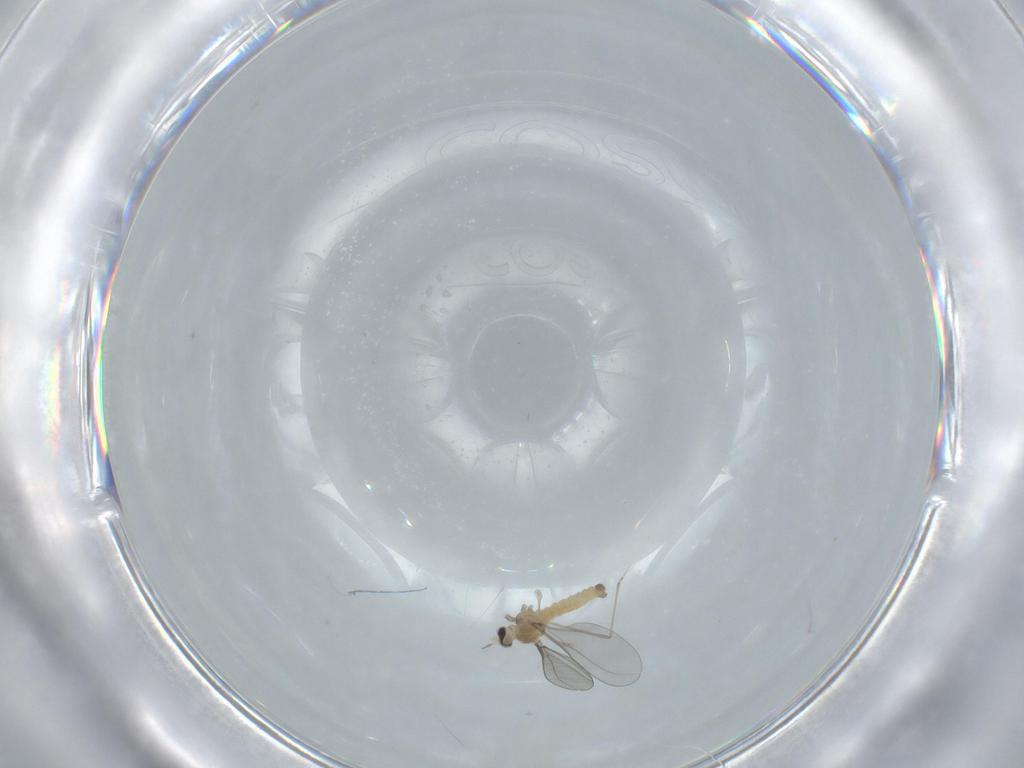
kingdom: Animalia
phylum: Arthropoda
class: Insecta
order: Diptera
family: Cecidomyiidae
